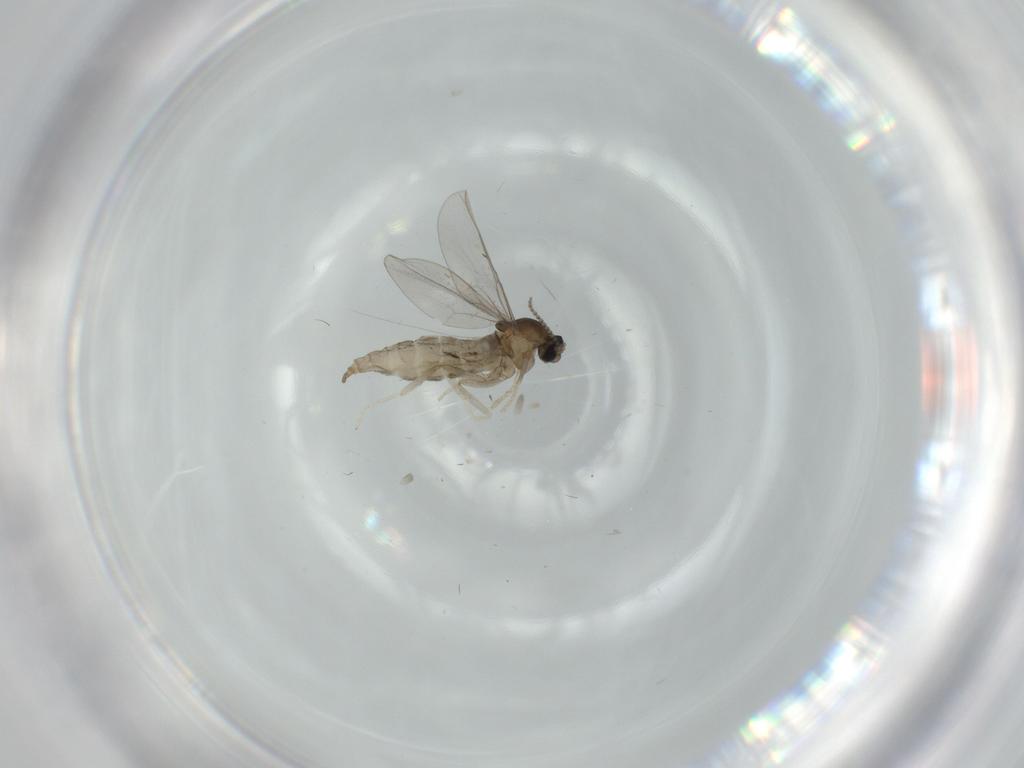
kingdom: Animalia
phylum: Arthropoda
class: Insecta
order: Diptera
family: Cecidomyiidae
